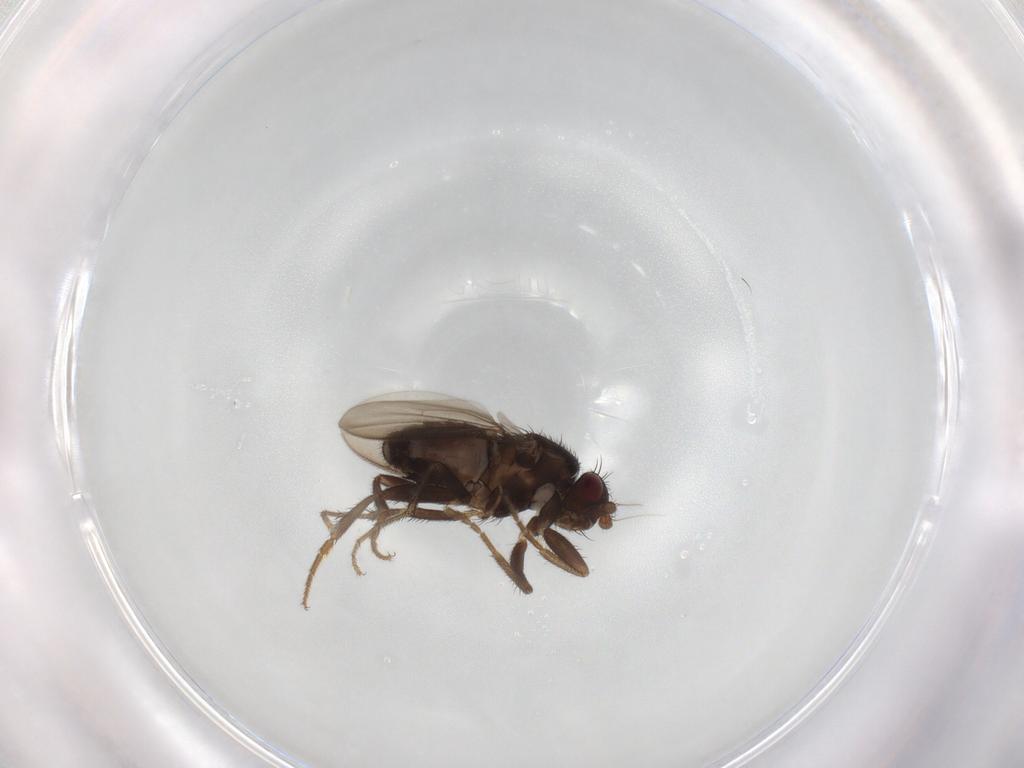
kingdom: Animalia
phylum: Arthropoda
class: Insecta
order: Diptera
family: Sphaeroceridae
